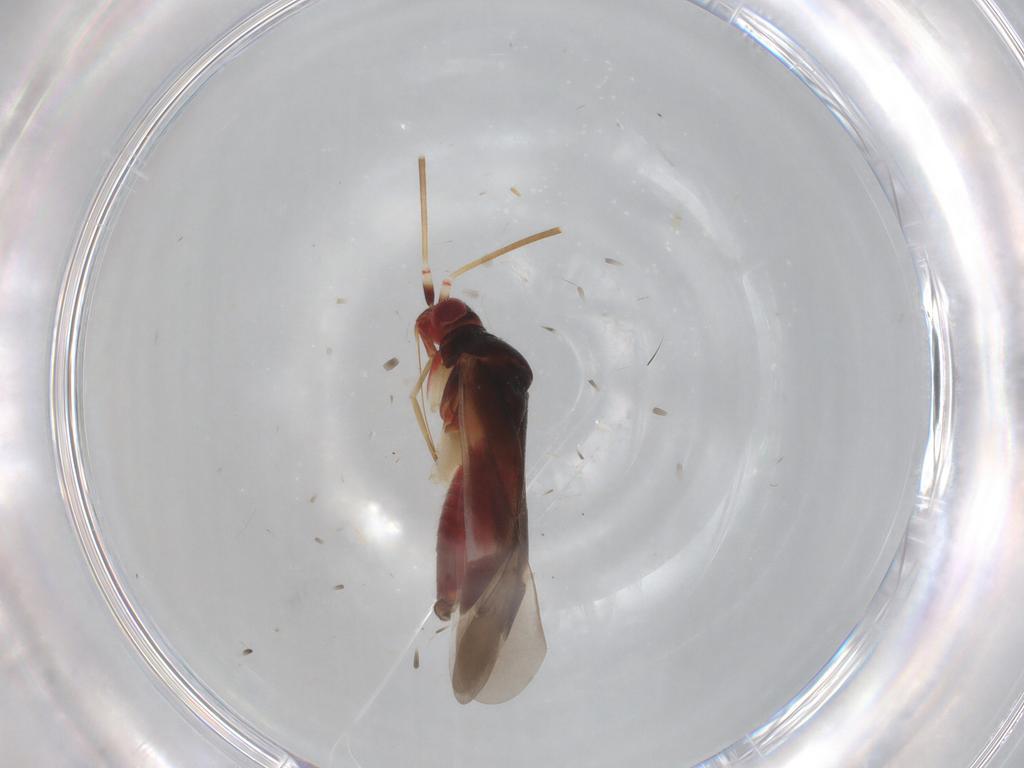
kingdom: Animalia
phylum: Arthropoda
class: Insecta
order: Hemiptera
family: Miridae
